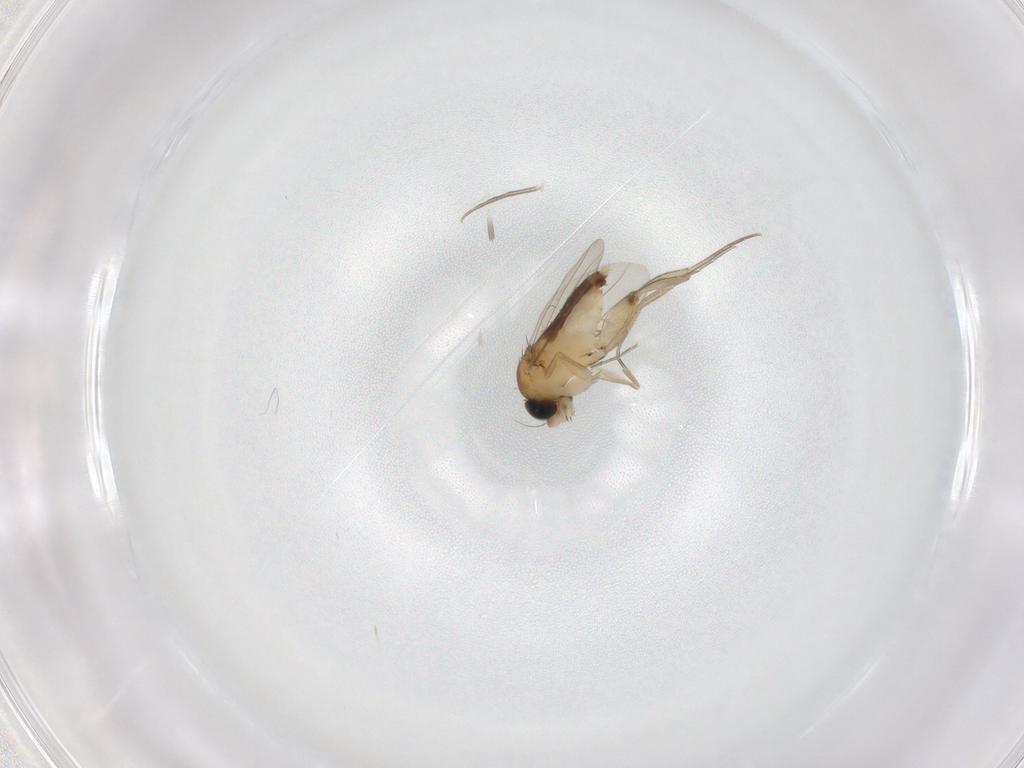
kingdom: Animalia
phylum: Arthropoda
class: Insecta
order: Diptera
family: Phoridae
